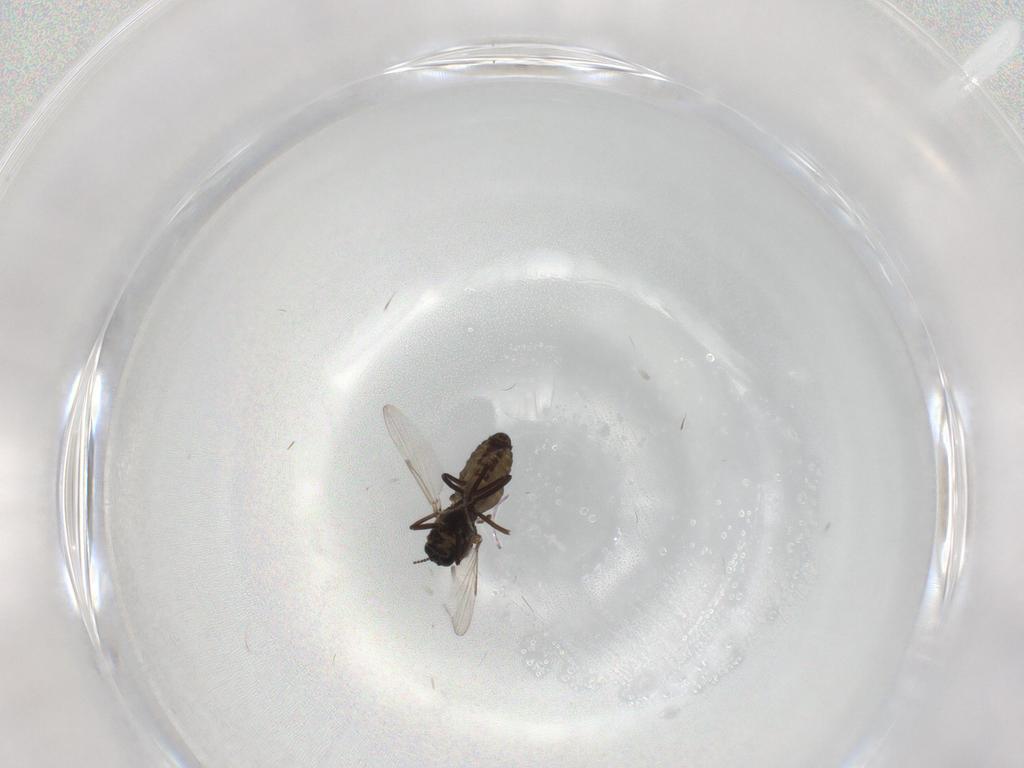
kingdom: Animalia
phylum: Arthropoda
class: Insecta
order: Diptera
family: Ceratopogonidae
